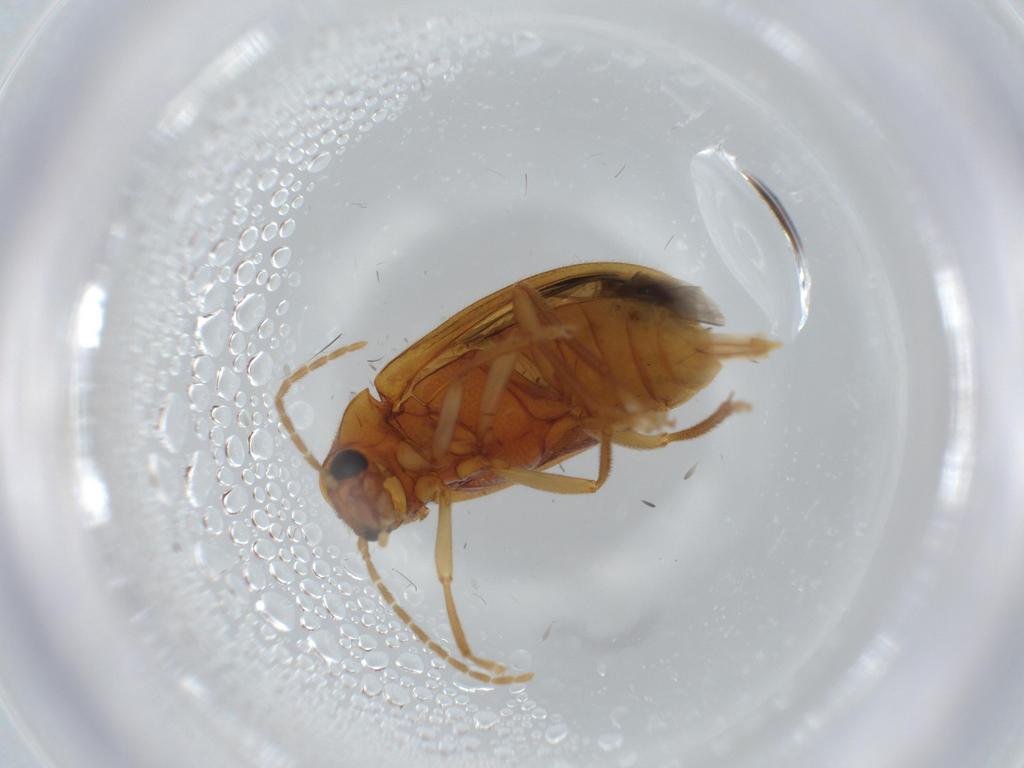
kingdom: Animalia
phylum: Arthropoda
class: Insecta
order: Coleoptera
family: Ptilodactylidae
